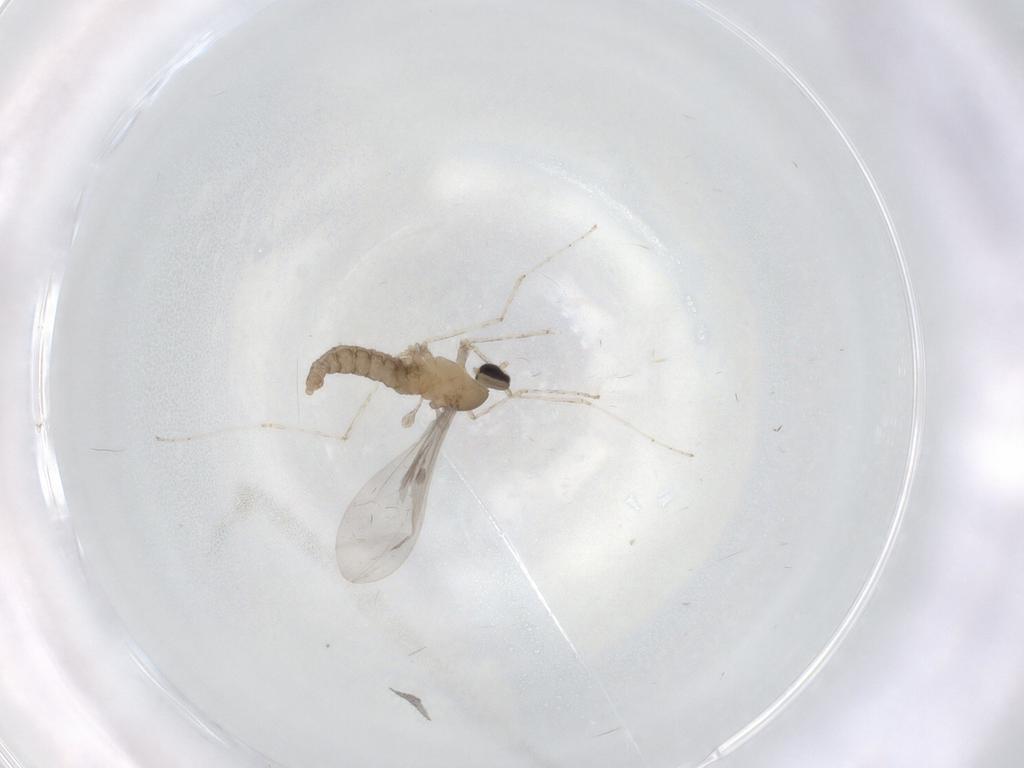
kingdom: Animalia
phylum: Arthropoda
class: Insecta
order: Diptera
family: Cecidomyiidae
